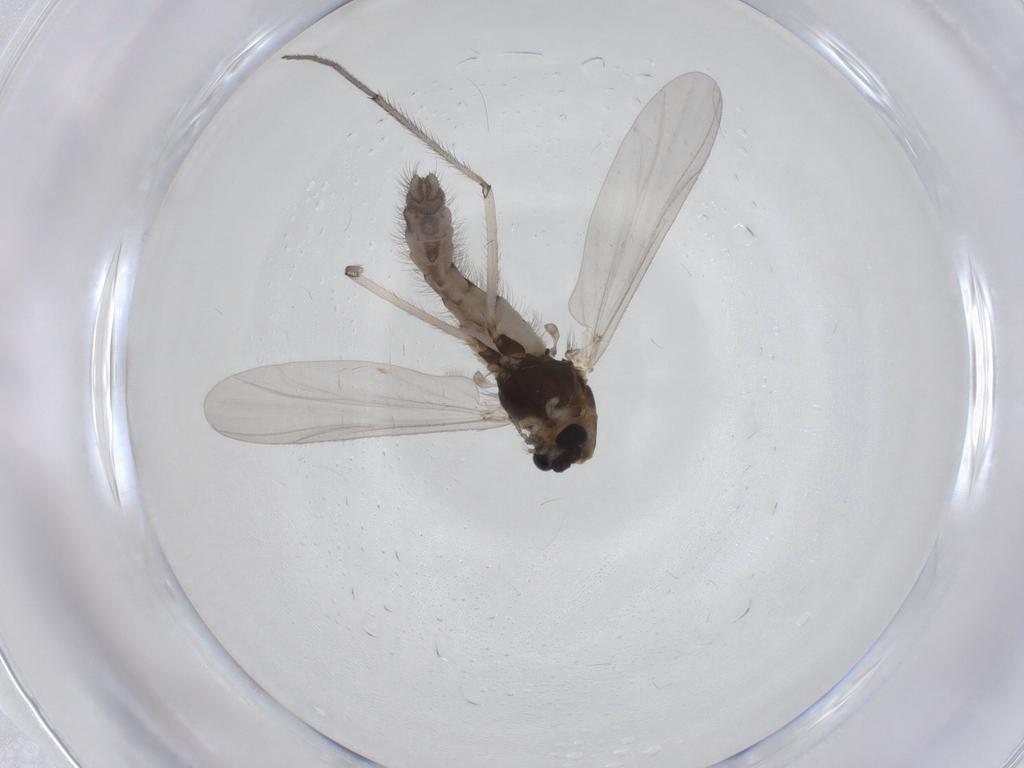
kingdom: Animalia
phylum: Arthropoda
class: Insecta
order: Diptera
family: Chironomidae
